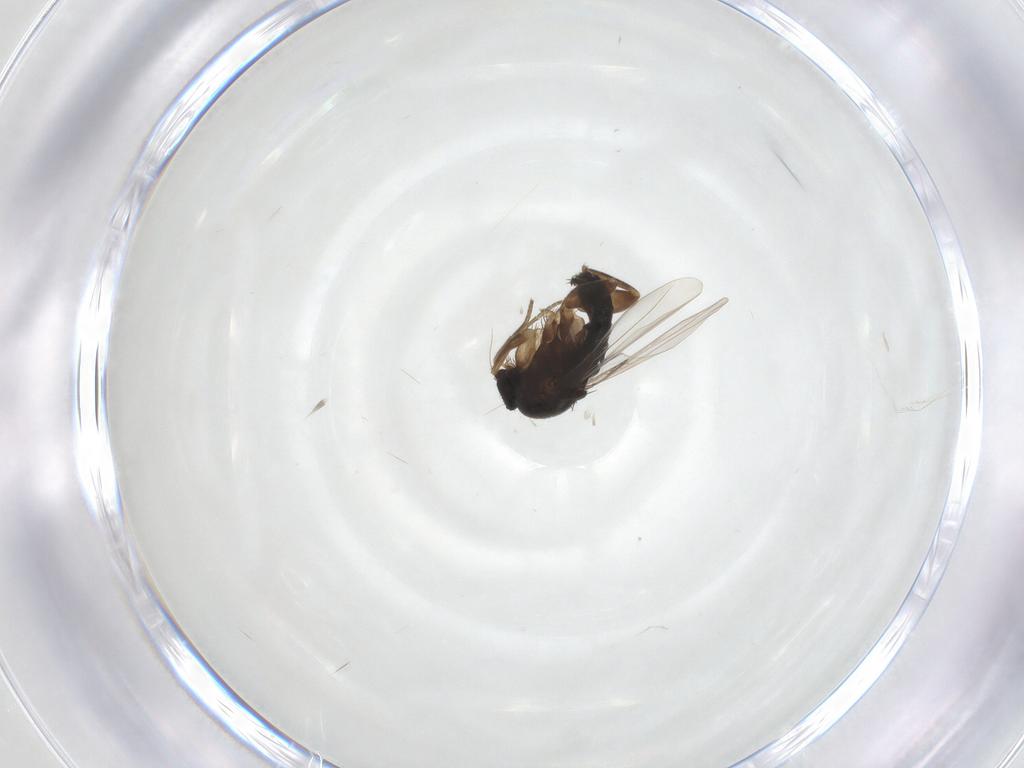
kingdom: Animalia
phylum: Arthropoda
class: Insecta
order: Diptera
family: Phoridae
